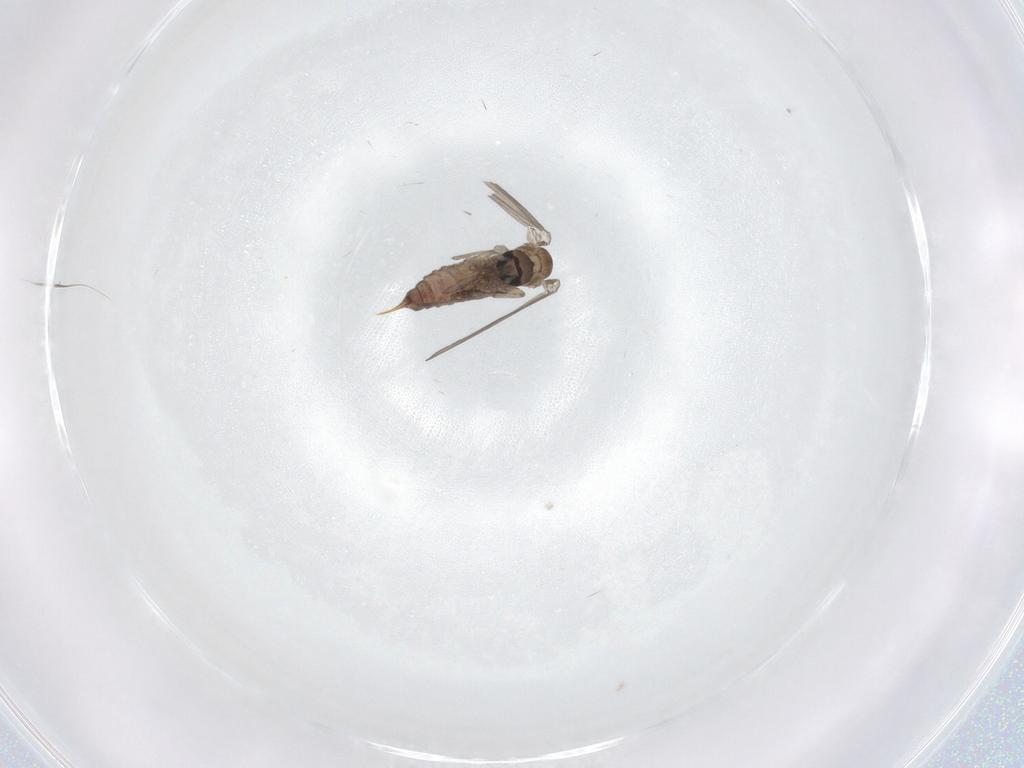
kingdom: Animalia
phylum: Arthropoda
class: Insecta
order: Diptera
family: Psychodidae
